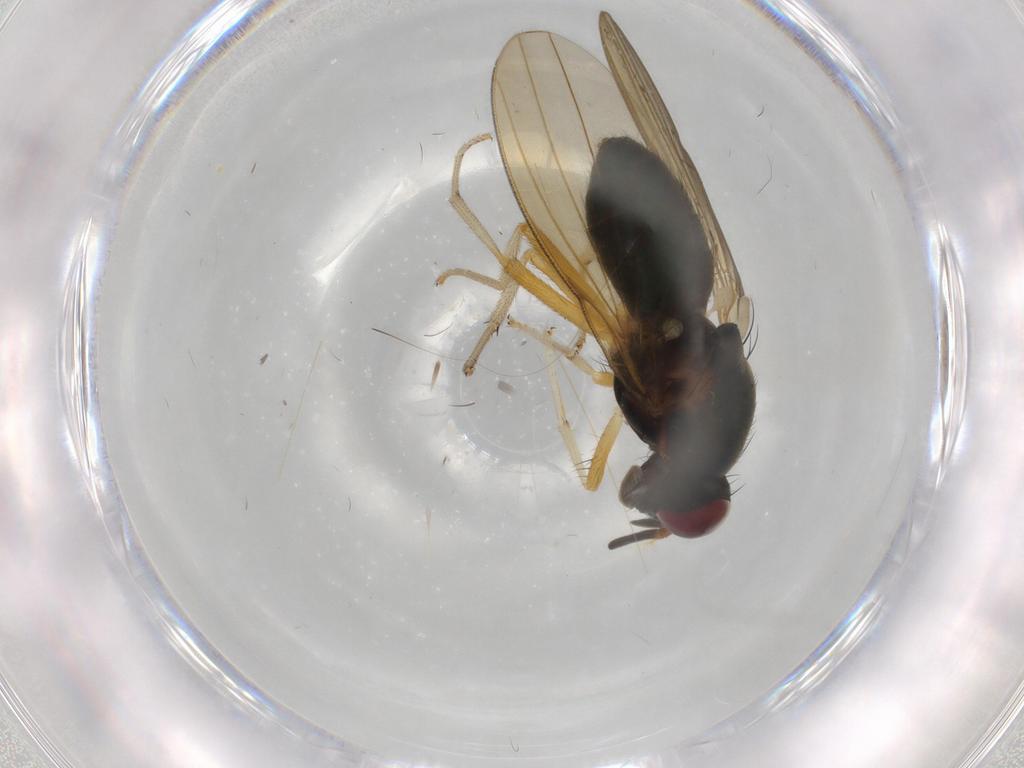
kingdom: Animalia
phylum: Arthropoda
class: Insecta
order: Diptera
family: Lauxaniidae
